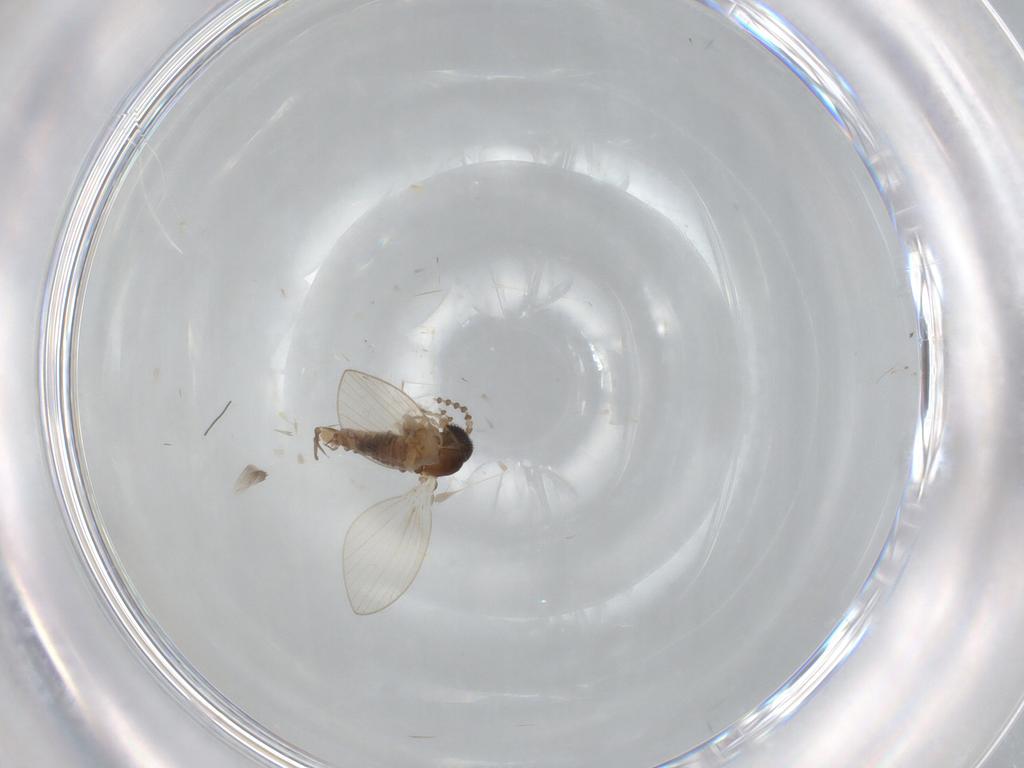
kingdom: Animalia
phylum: Arthropoda
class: Insecta
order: Diptera
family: Psychodidae
